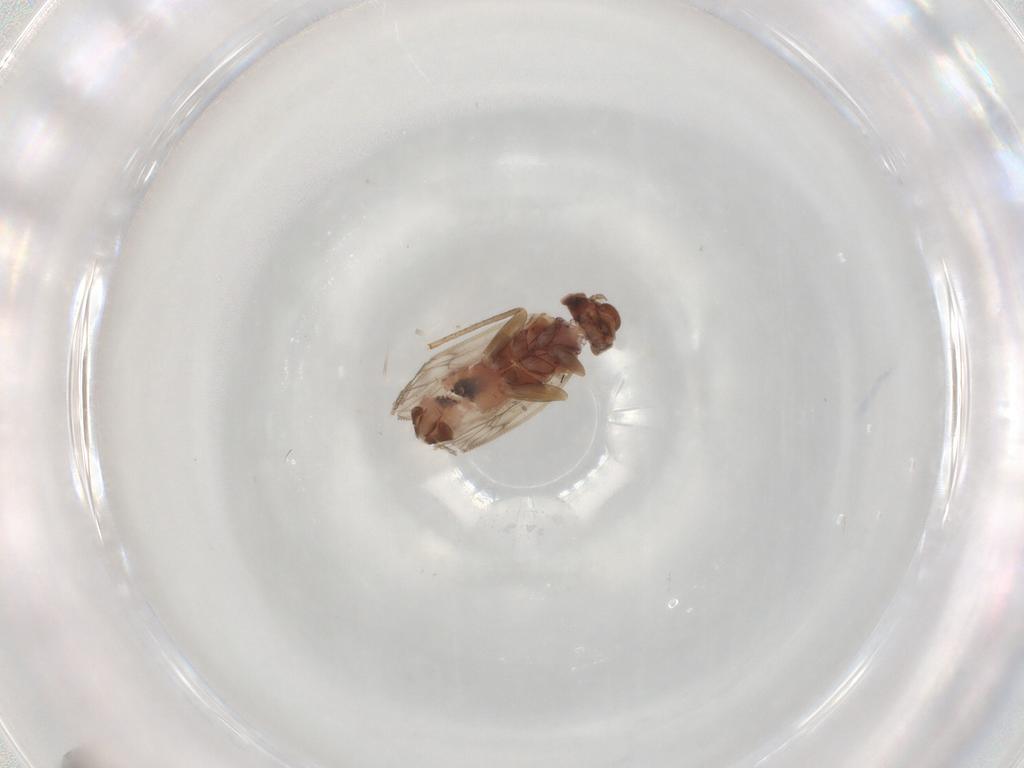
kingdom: Animalia
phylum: Arthropoda
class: Insecta
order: Psocodea
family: Lepidopsocidae
